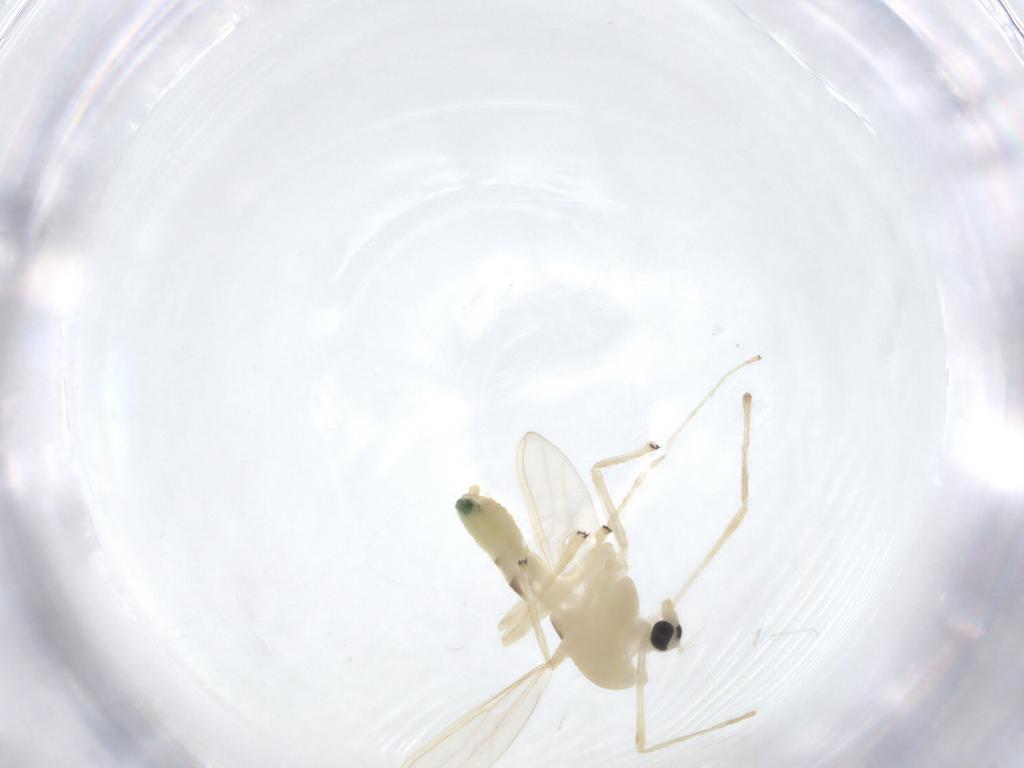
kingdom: Animalia
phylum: Arthropoda
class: Insecta
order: Diptera
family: Chironomidae
